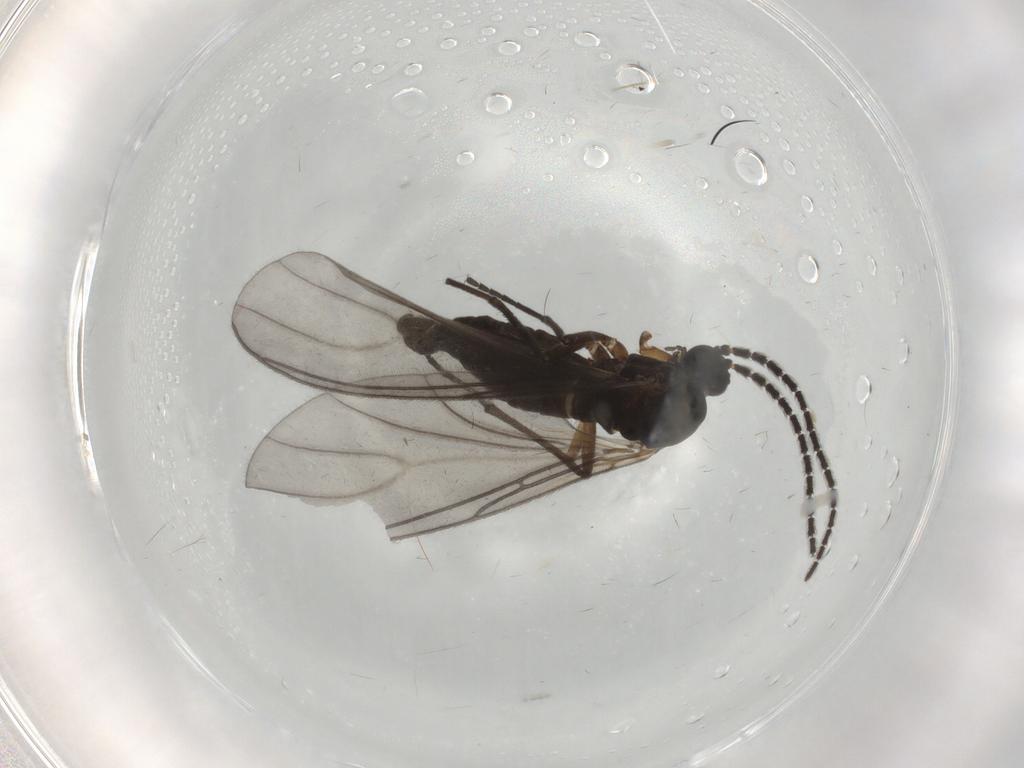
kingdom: Animalia
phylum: Arthropoda
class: Insecta
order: Diptera
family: Sciaridae
